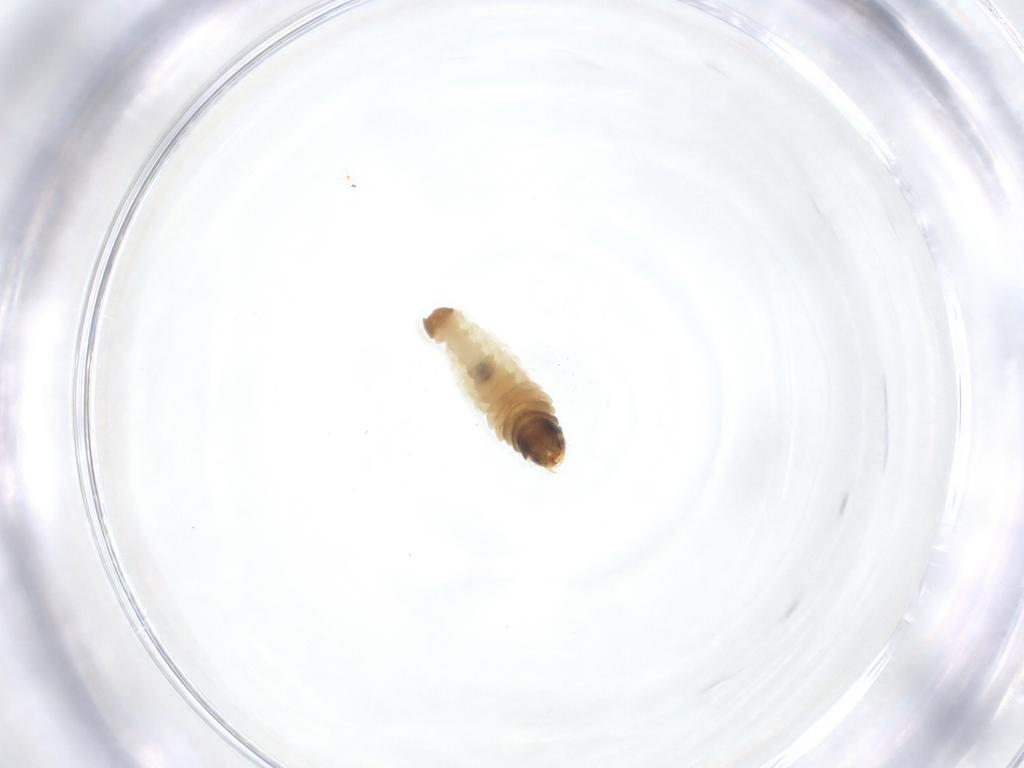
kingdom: Animalia
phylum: Arthropoda
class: Insecta
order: Lepidoptera
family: Psychidae
